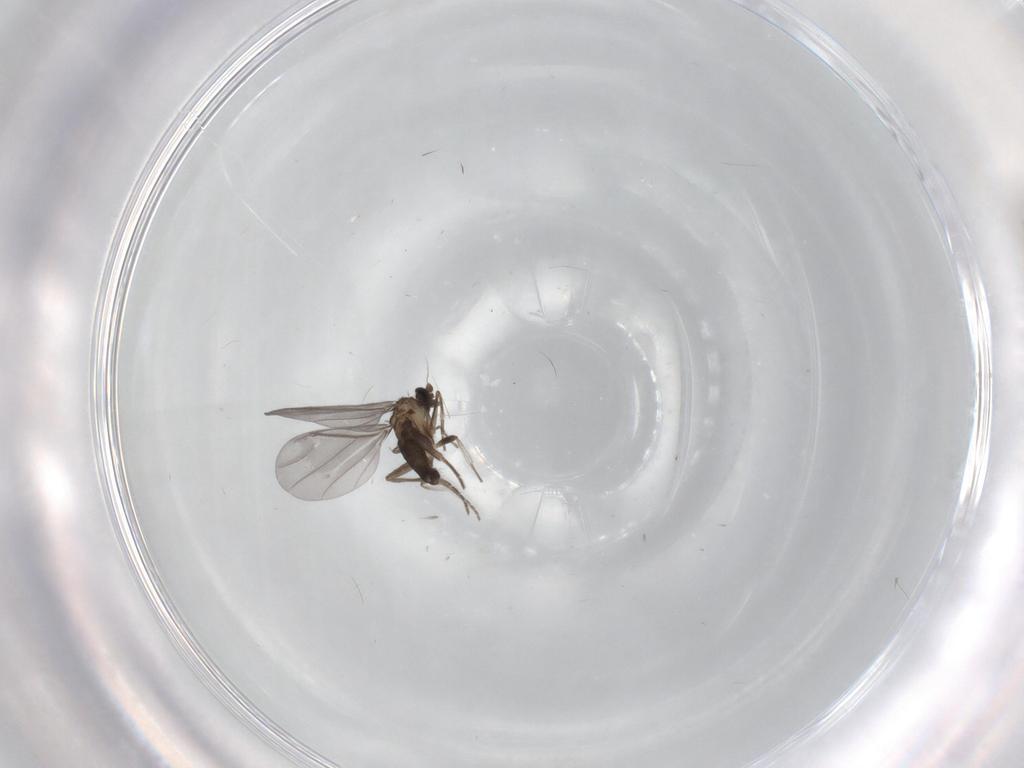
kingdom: Animalia
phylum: Arthropoda
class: Insecta
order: Diptera
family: Phoridae
